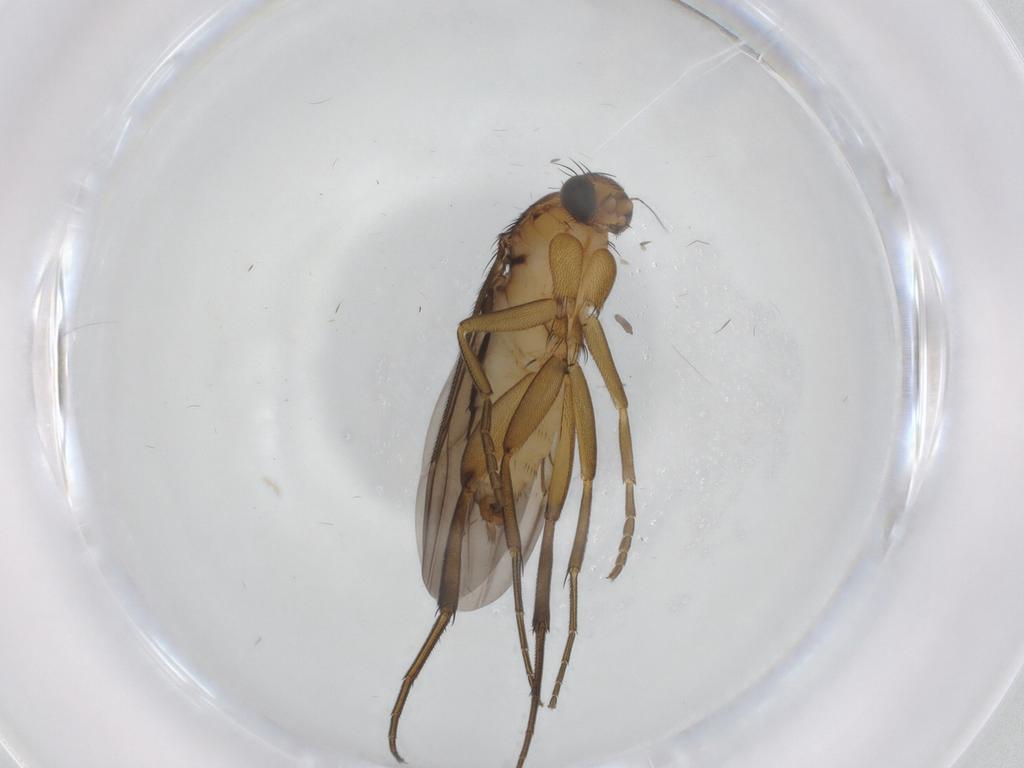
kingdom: Animalia
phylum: Arthropoda
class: Insecta
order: Diptera
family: Phoridae
